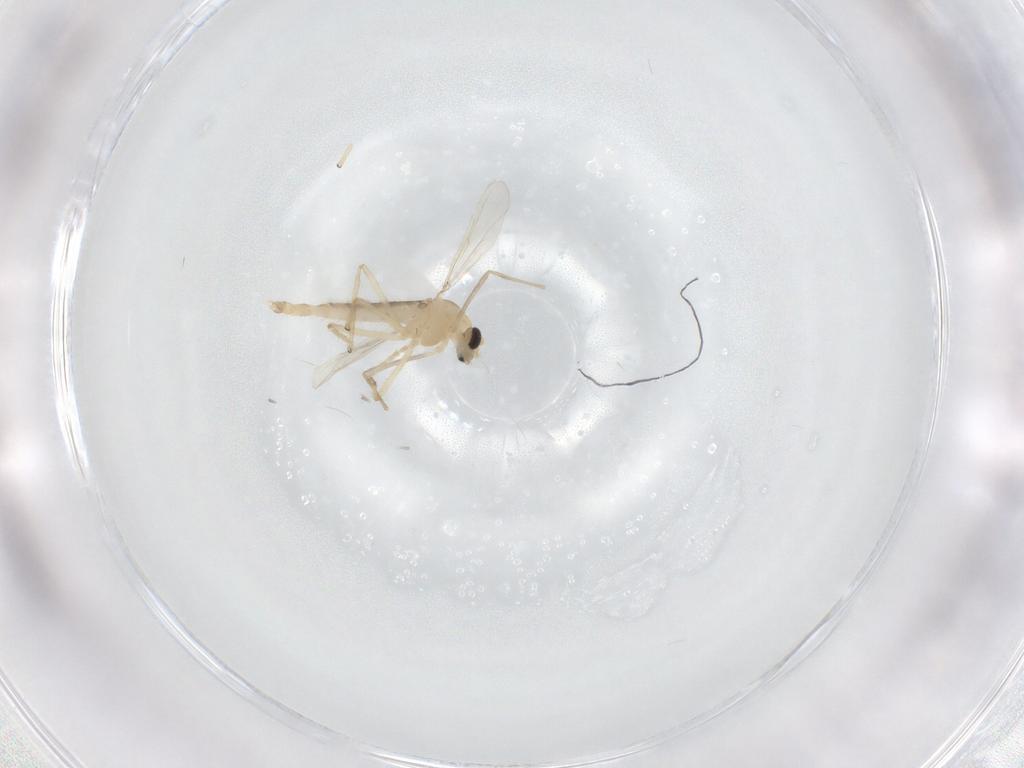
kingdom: Animalia
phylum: Arthropoda
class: Insecta
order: Diptera
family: Chironomidae
